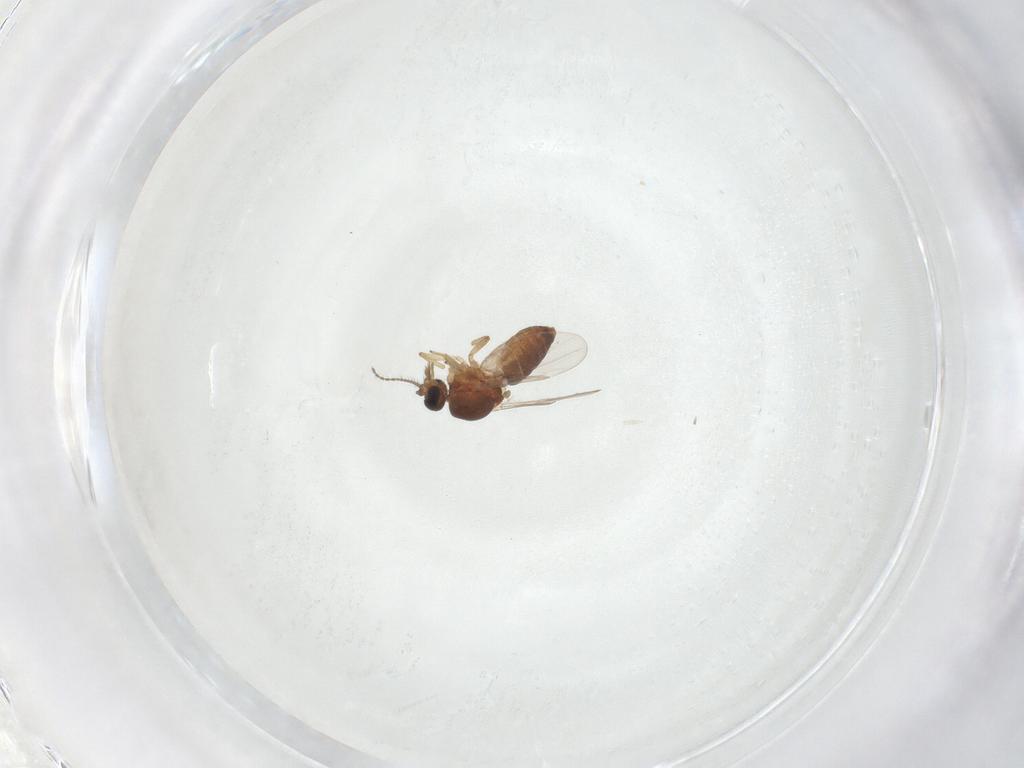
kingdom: Animalia
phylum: Arthropoda
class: Insecta
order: Diptera
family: Ceratopogonidae
